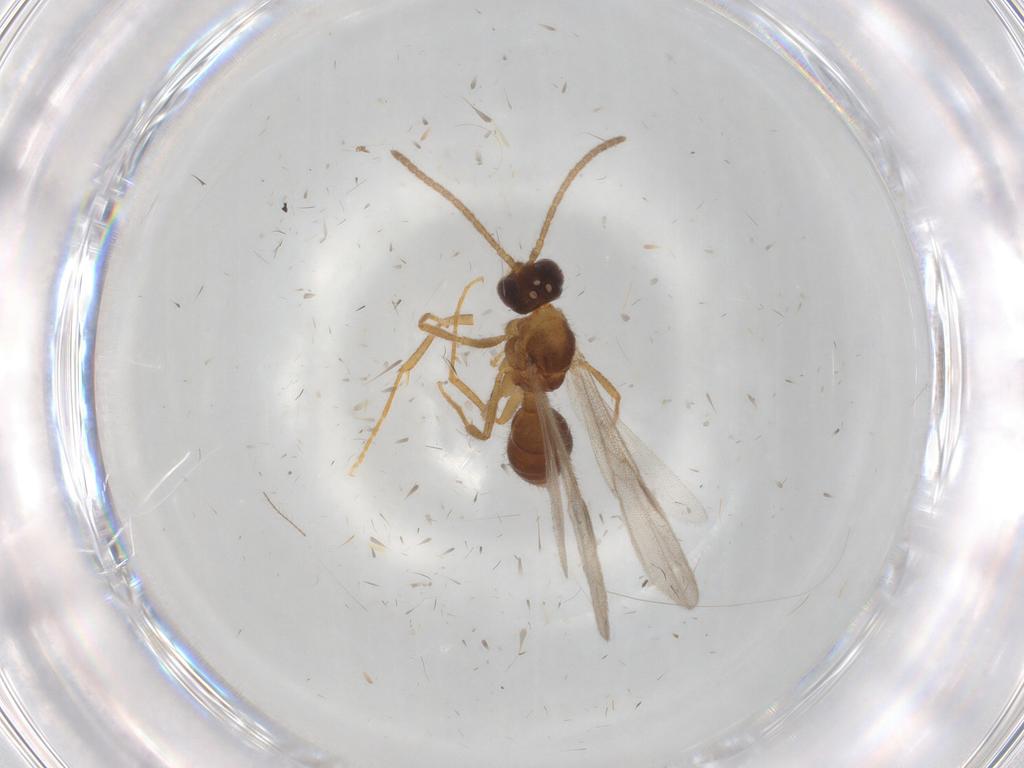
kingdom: Animalia
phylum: Arthropoda
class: Insecta
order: Hymenoptera
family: Formicidae
